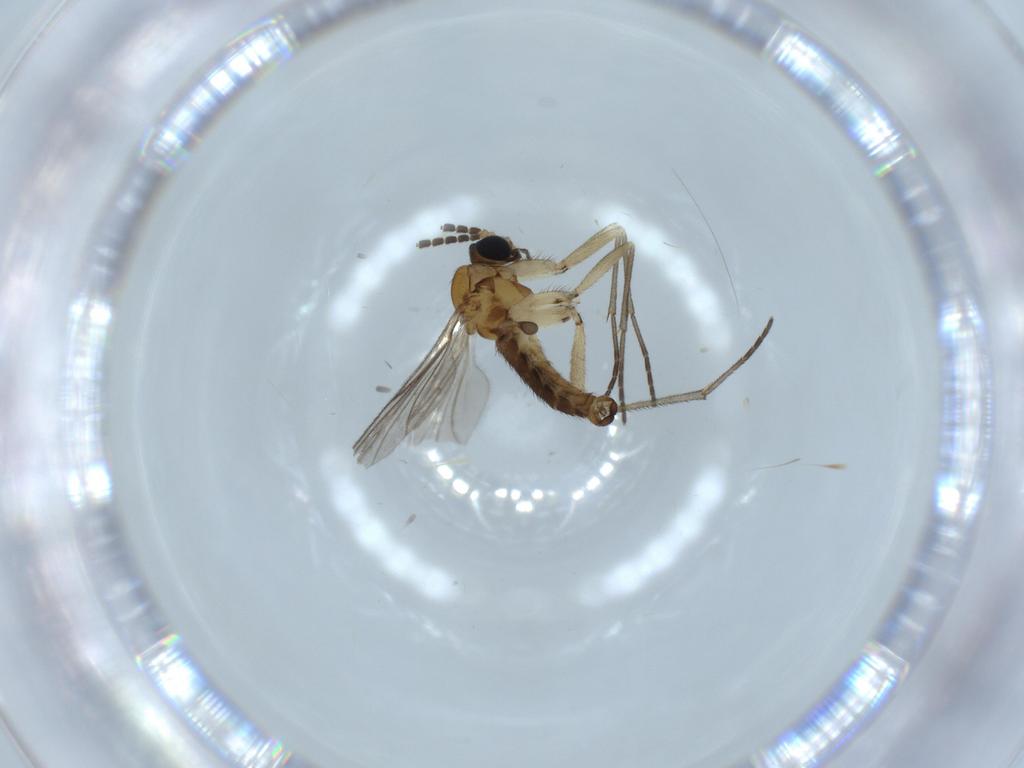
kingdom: Animalia
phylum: Arthropoda
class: Insecta
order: Diptera
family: Sciaridae
